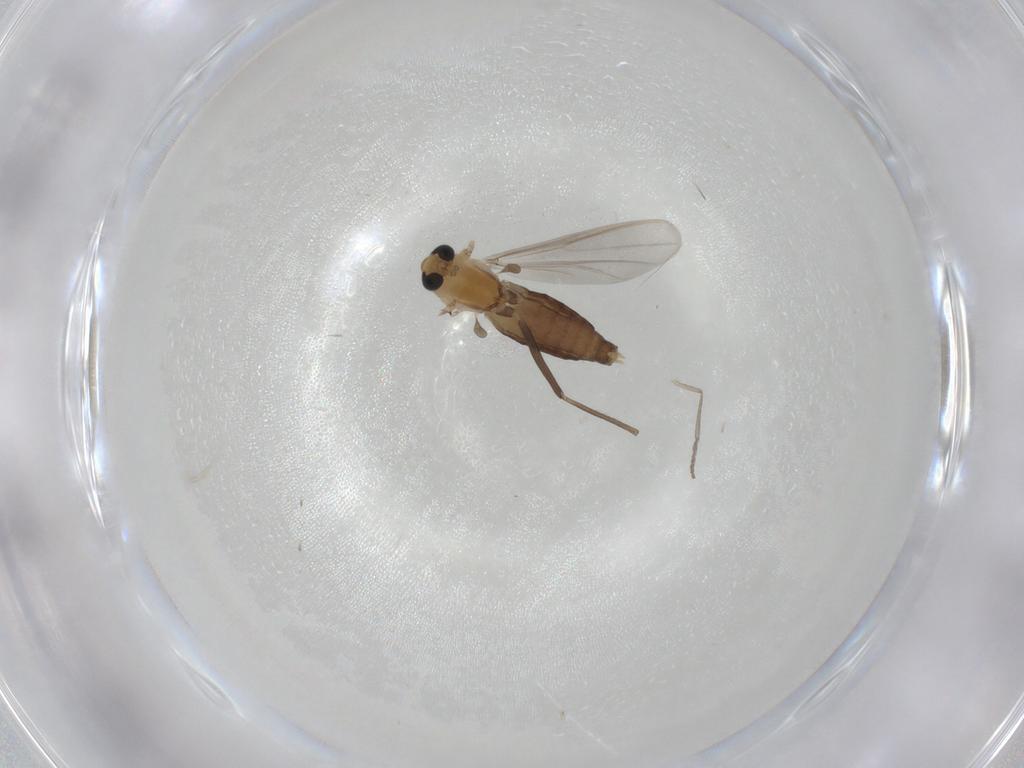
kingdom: Animalia
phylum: Arthropoda
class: Insecta
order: Diptera
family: Chironomidae
